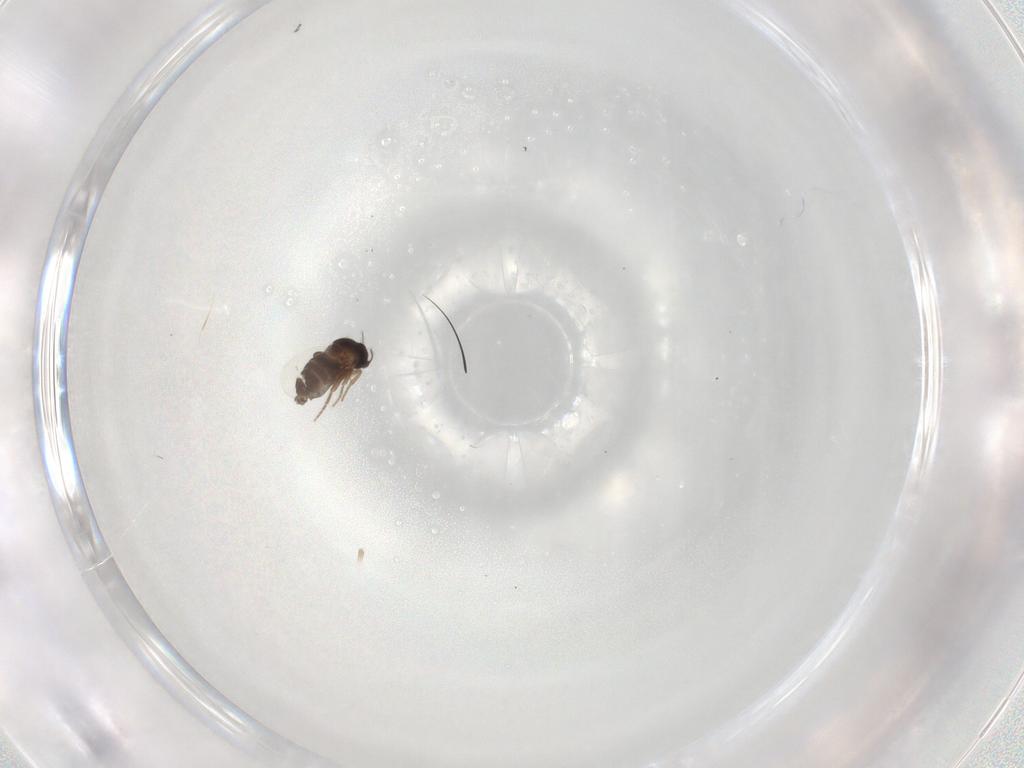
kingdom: Animalia
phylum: Arthropoda
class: Insecta
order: Diptera
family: Phoridae
